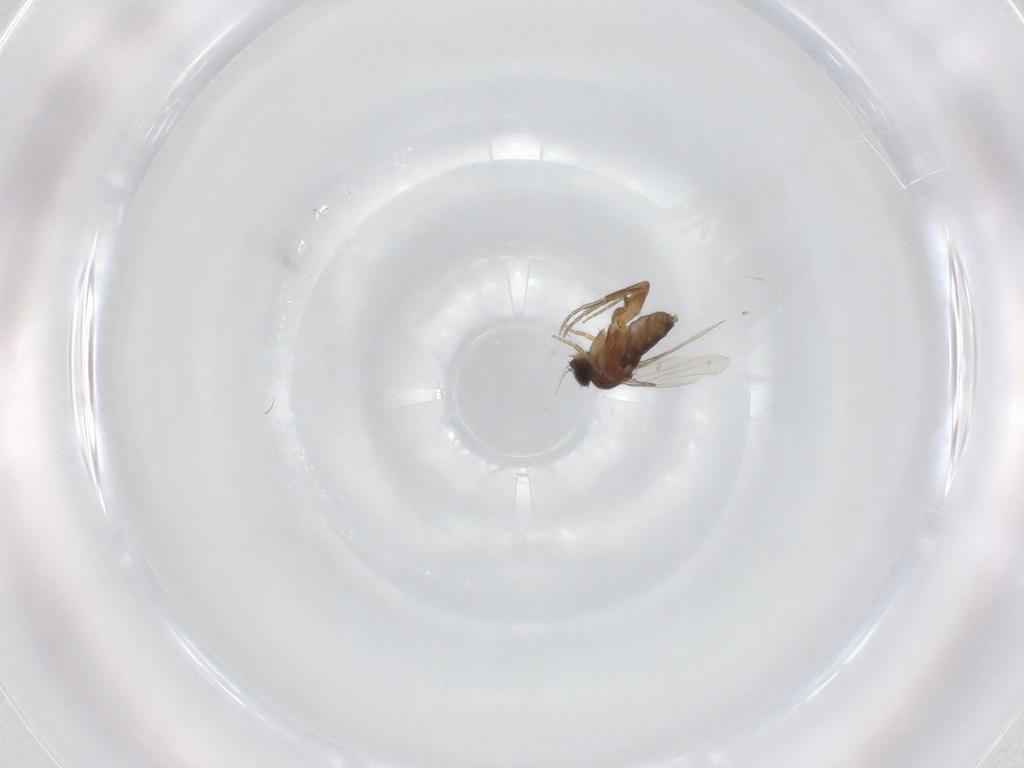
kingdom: Animalia
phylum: Arthropoda
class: Insecta
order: Diptera
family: Phoridae
